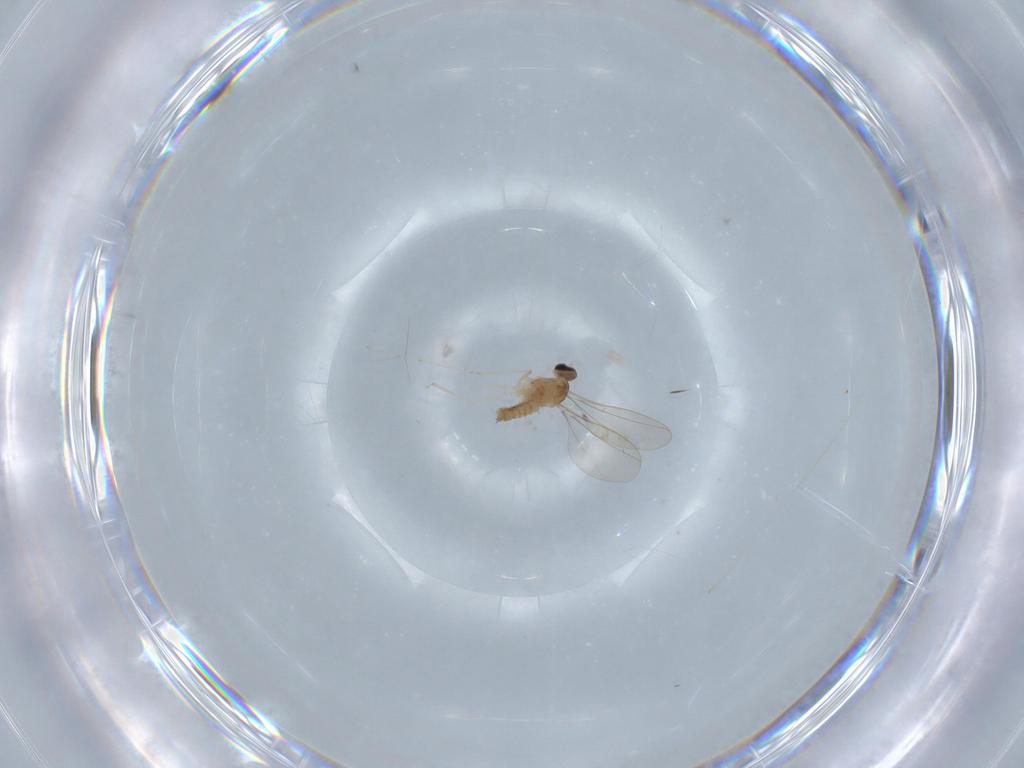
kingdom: Animalia
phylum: Arthropoda
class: Insecta
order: Diptera
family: Cecidomyiidae
